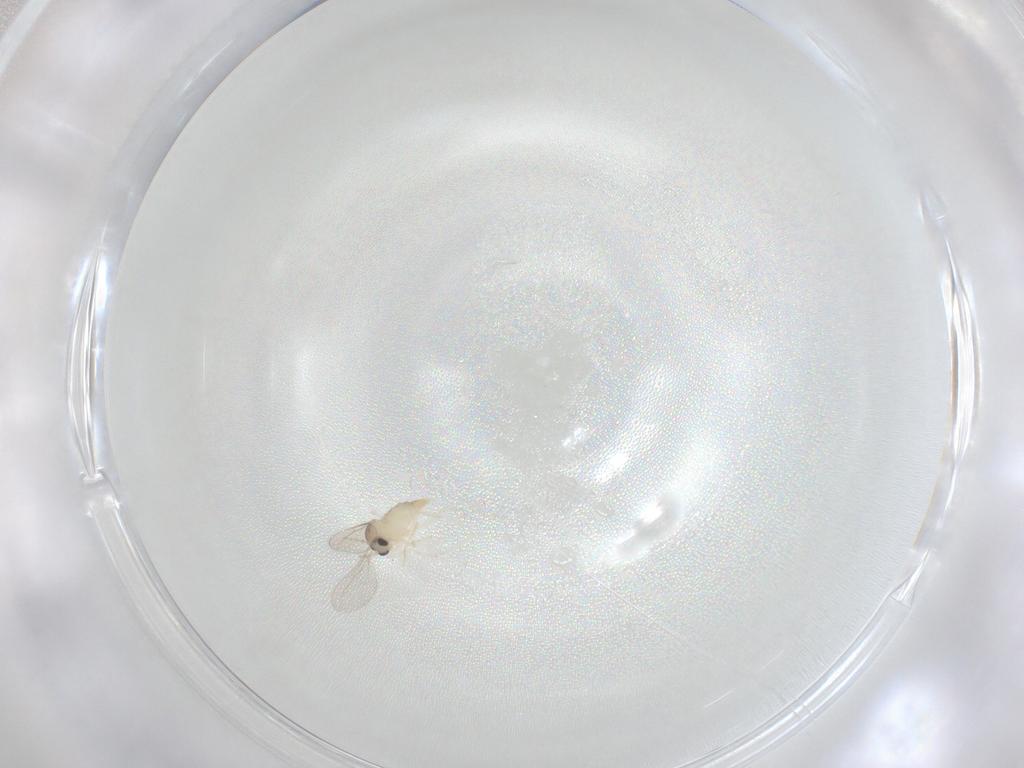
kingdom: Animalia
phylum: Arthropoda
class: Insecta
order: Diptera
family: Cecidomyiidae
